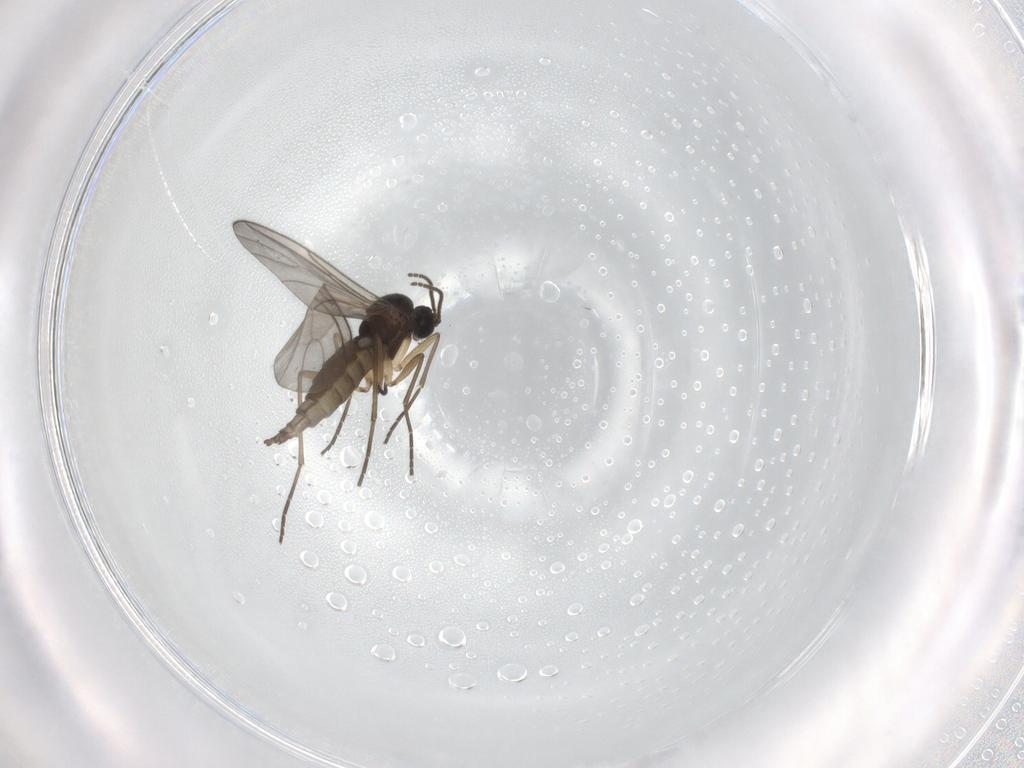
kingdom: Animalia
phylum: Arthropoda
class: Insecta
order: Diptera
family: Sciaridae
